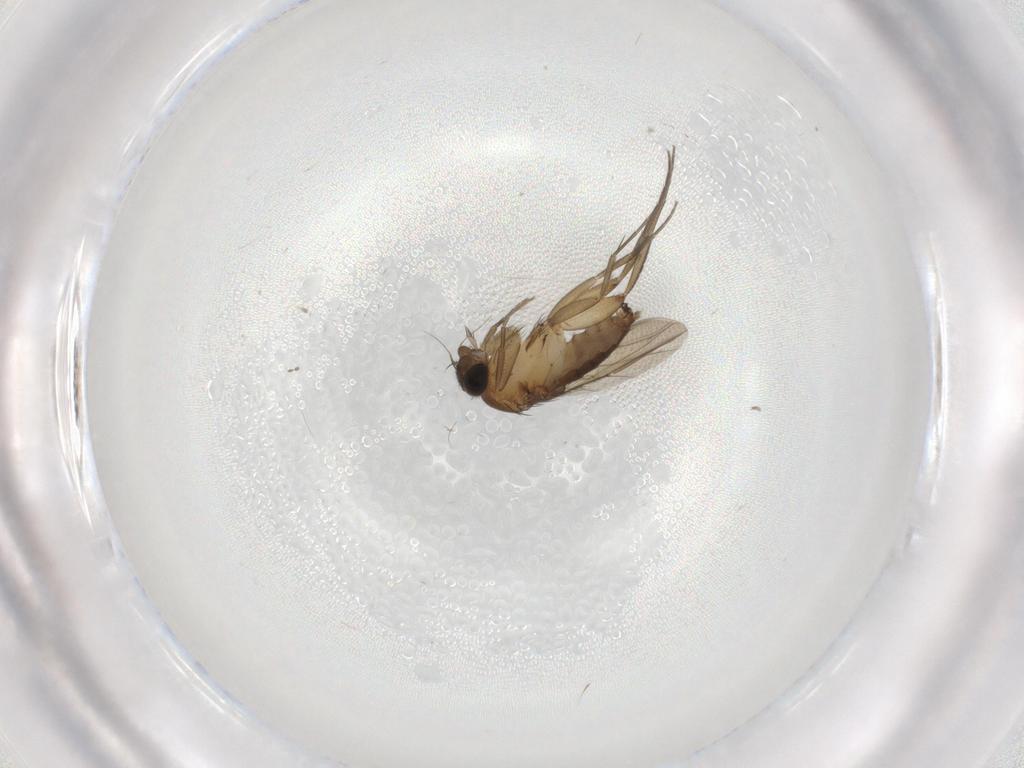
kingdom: Animalia
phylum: Arthropoda
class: Insecta
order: Diptera
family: Phoridae
